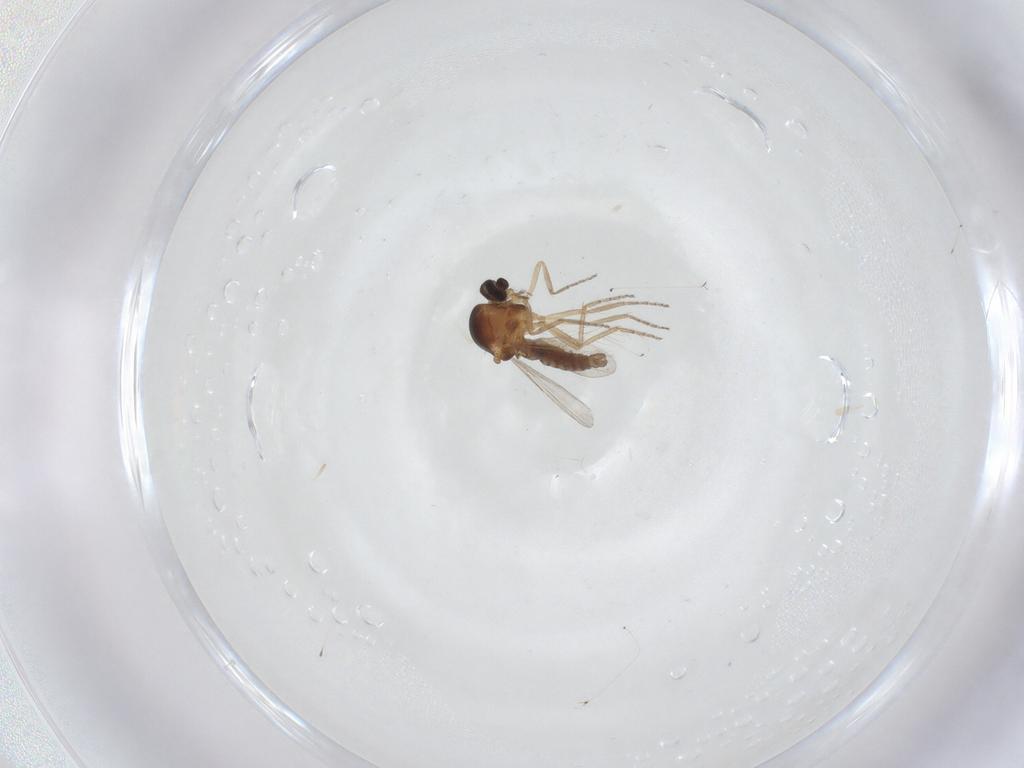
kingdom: Animalia
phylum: Arthropoda
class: Insecta
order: Diptera
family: Ceratopogonidae
